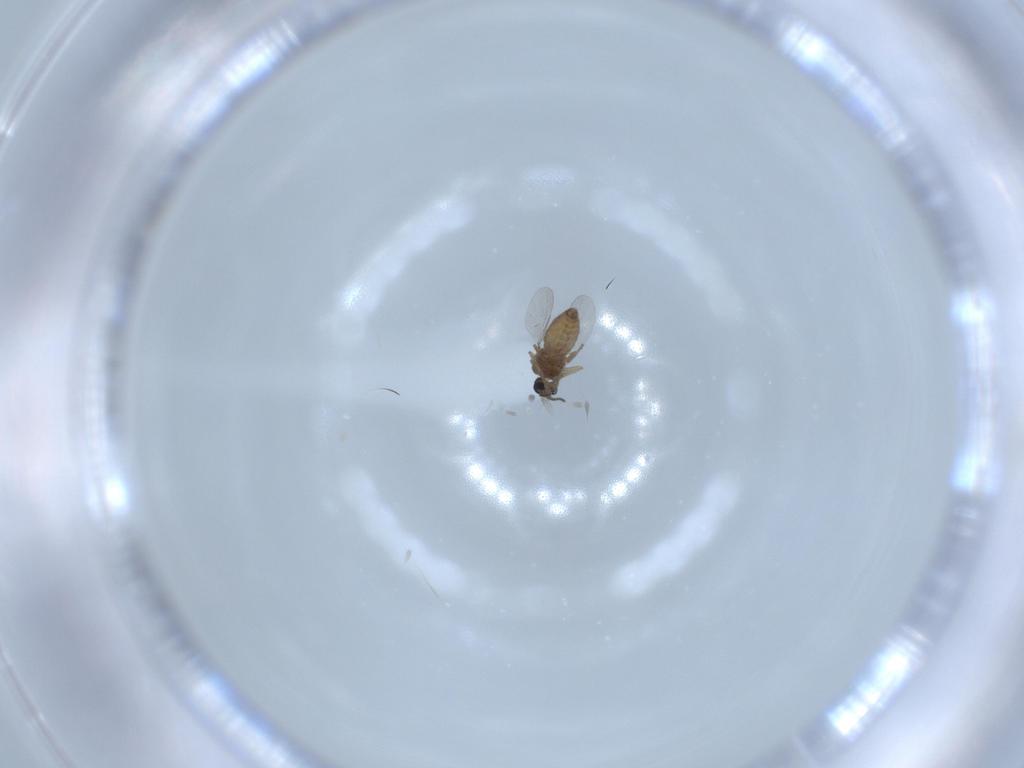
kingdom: Animalia
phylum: Arthropoda
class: Insecta
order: Diptera
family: Ceratopogonidae
